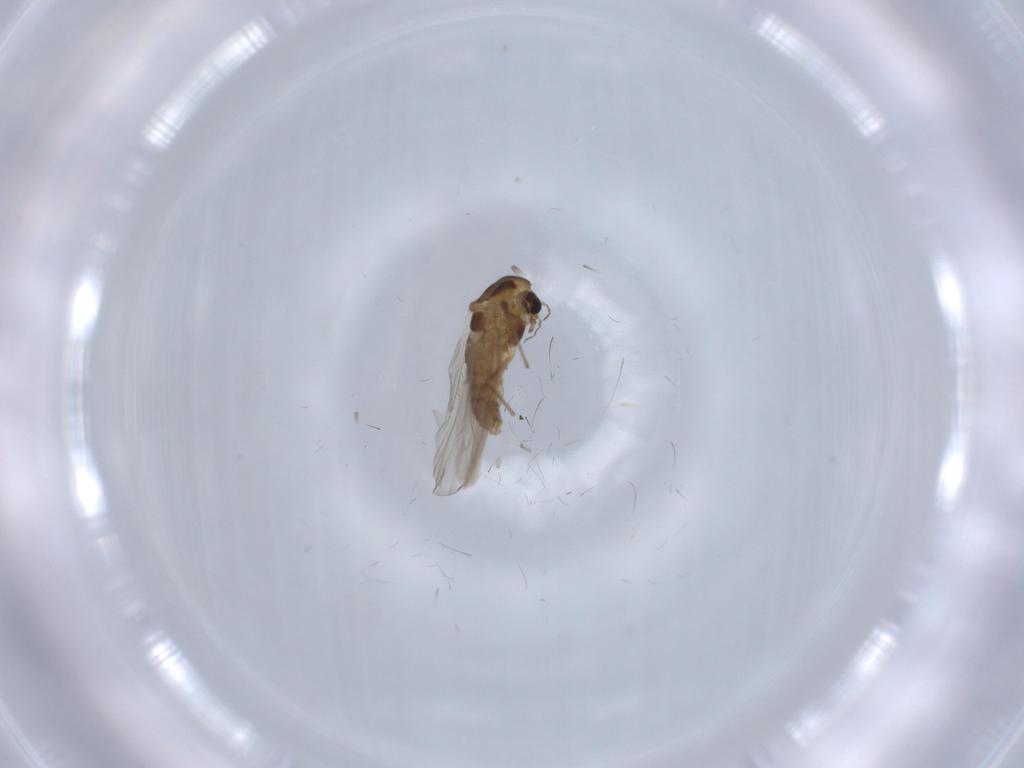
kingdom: Animalia
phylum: Arthropoda
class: Insecta
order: Diptera
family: Chironomidae
